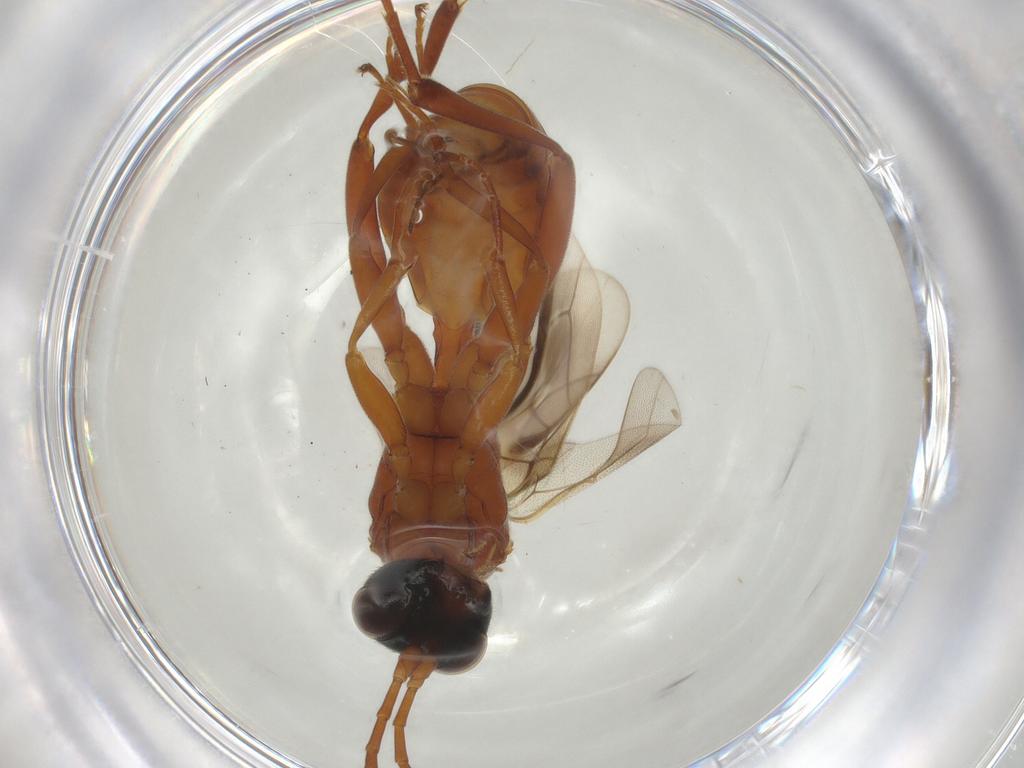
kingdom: Animalia
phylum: Arthropoda
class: Insecta
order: Hymenoptera
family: Ichneumonidae
